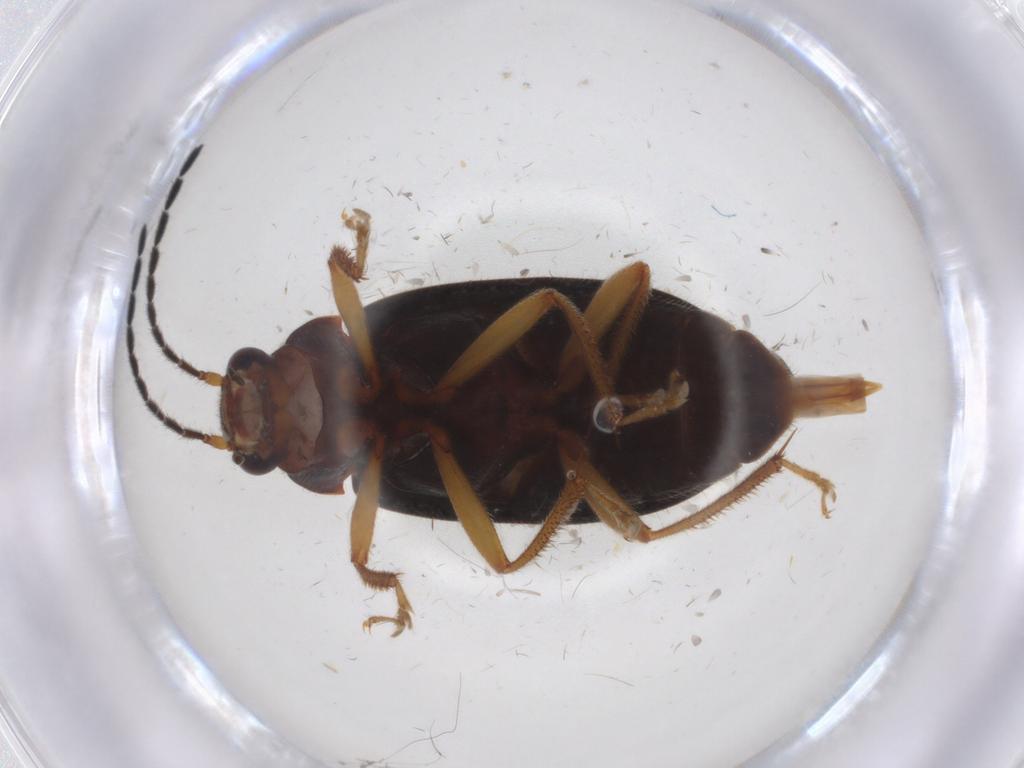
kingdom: Animalia
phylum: Arthropoda
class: Insecta
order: Coleoptera
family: Ptilodactylidae
